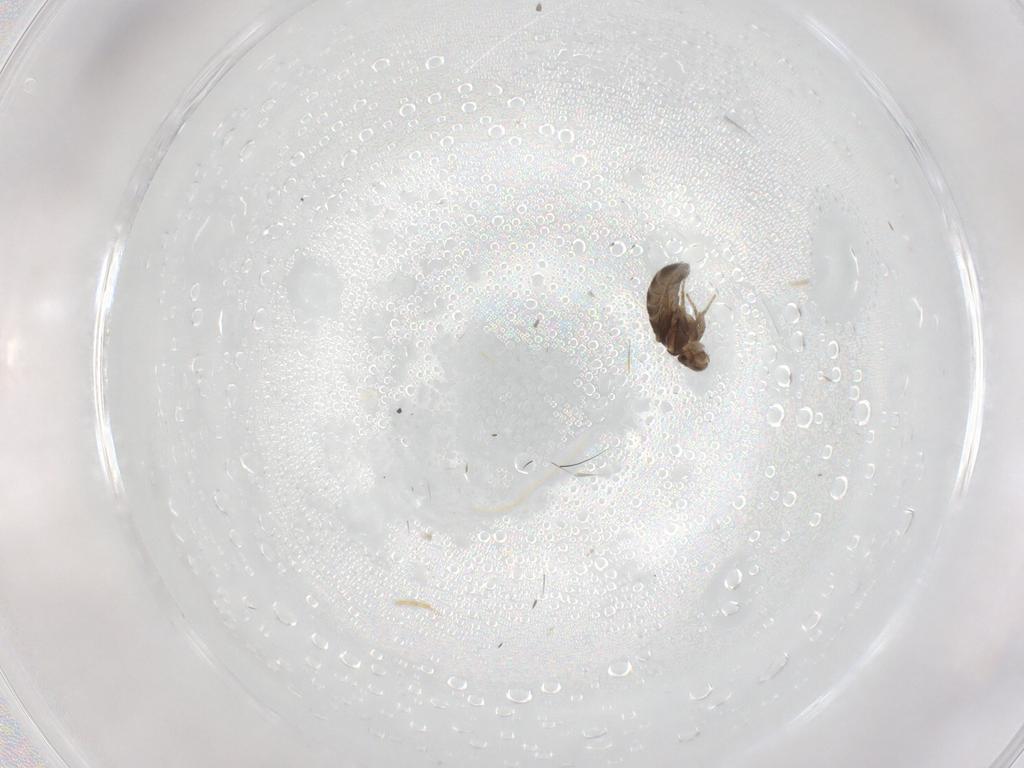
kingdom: Animalia
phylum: Arthropoda
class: Insecta
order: Diptera
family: Phoridae
